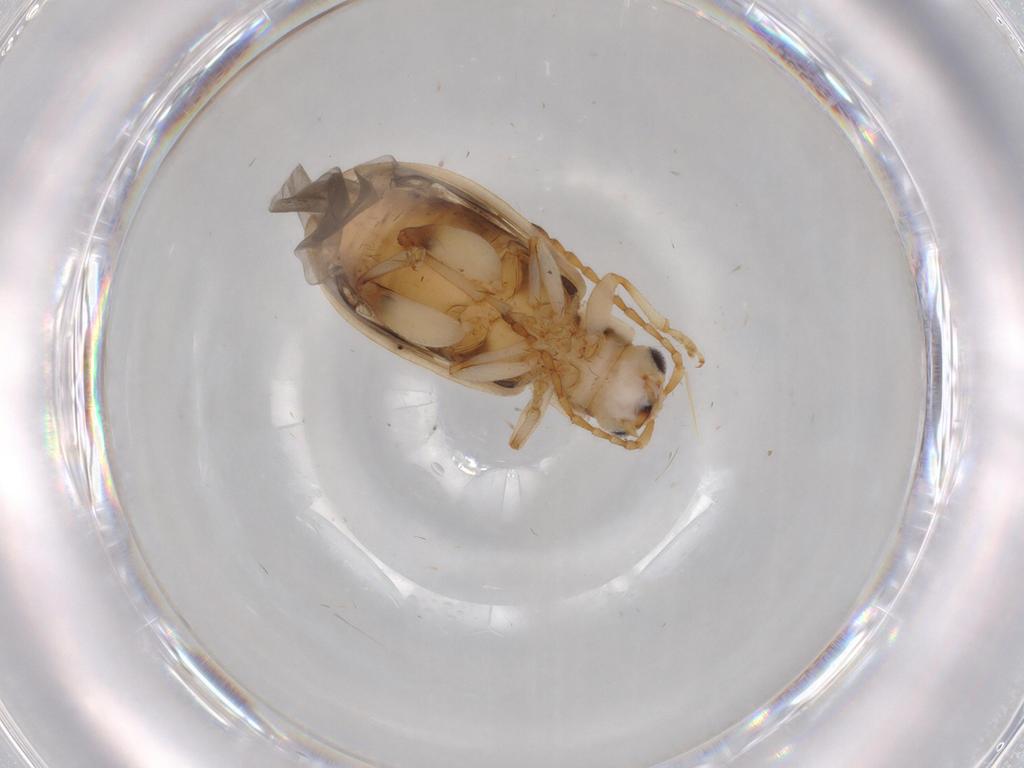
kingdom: Animalia
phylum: Arthropoda
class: Insecta
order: Coleoptera
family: Chrysomelidae
